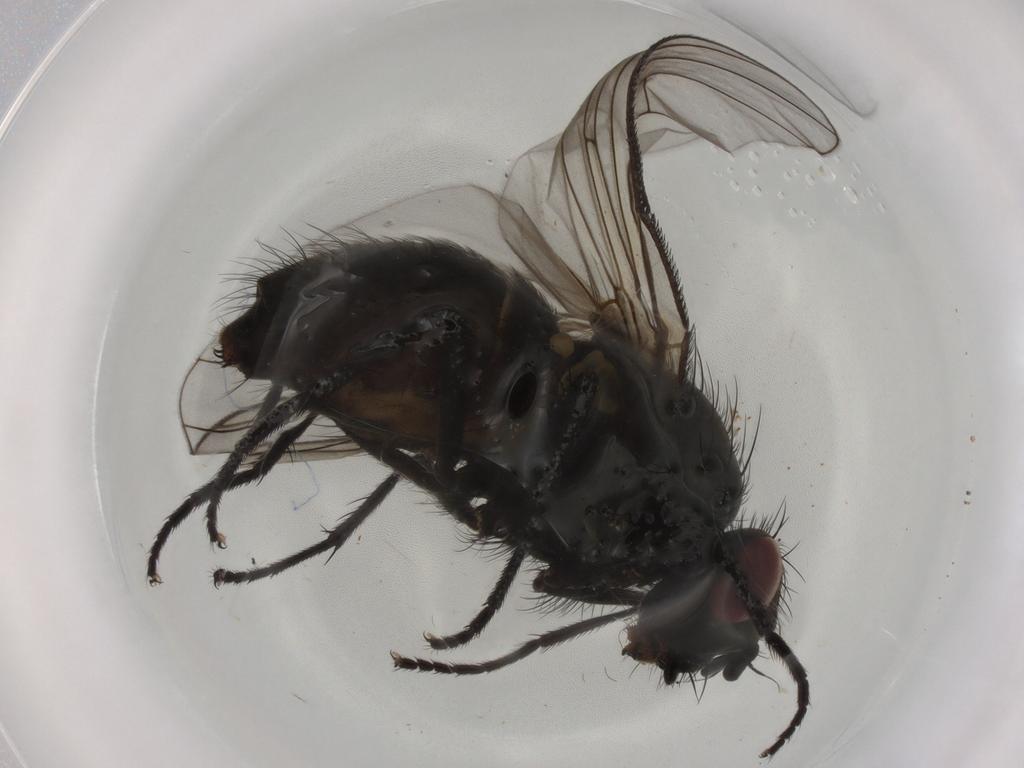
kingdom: Animalia
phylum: Arthropoda
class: Insecta
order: Diptera
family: Muscidae
